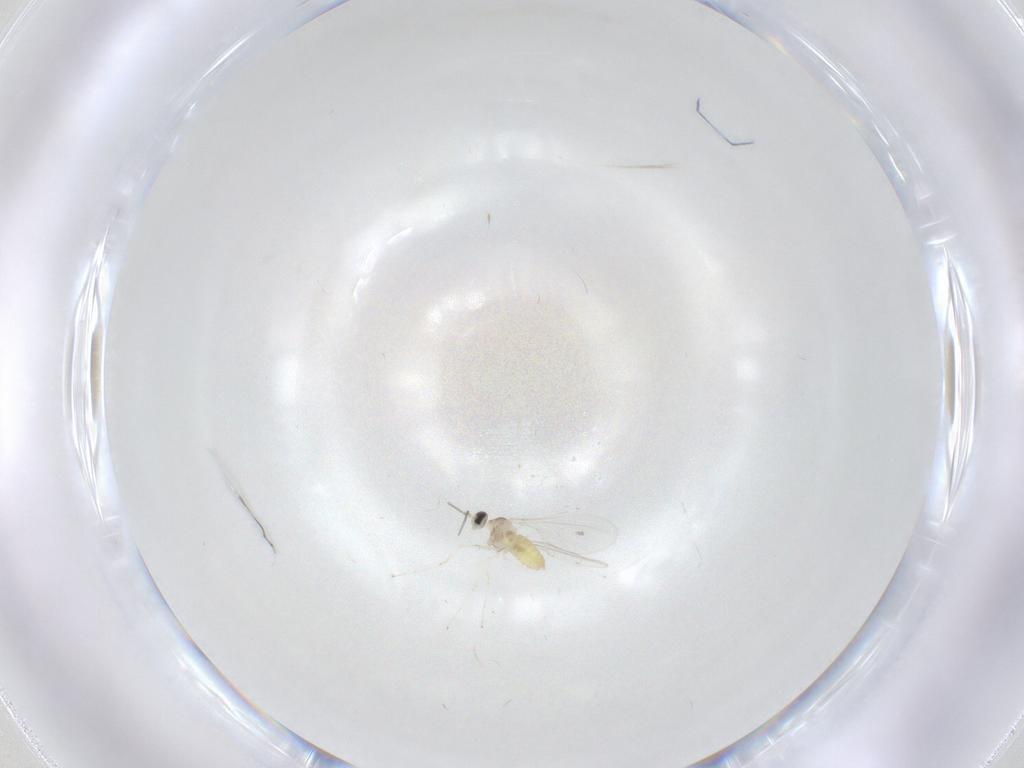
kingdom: Animalia
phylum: Arthropoda
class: Insecta
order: Diptera
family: Cecidomyiidae
